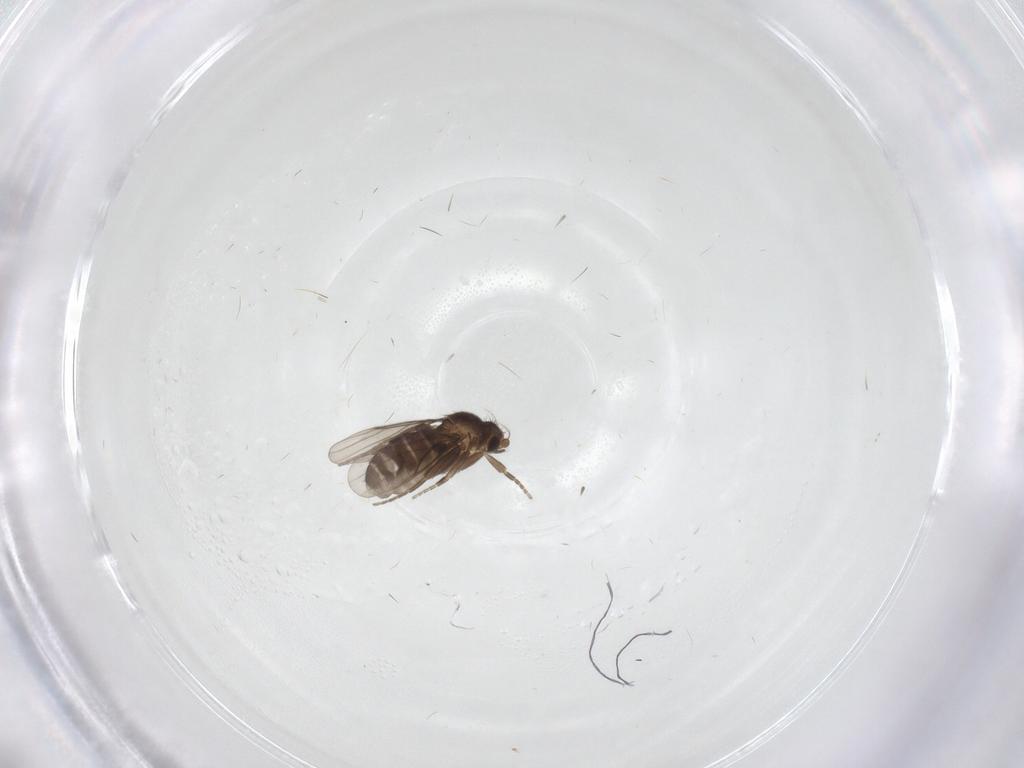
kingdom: Animalia
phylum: Arthropoda
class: Insecta
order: Diptera
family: Phoridae
